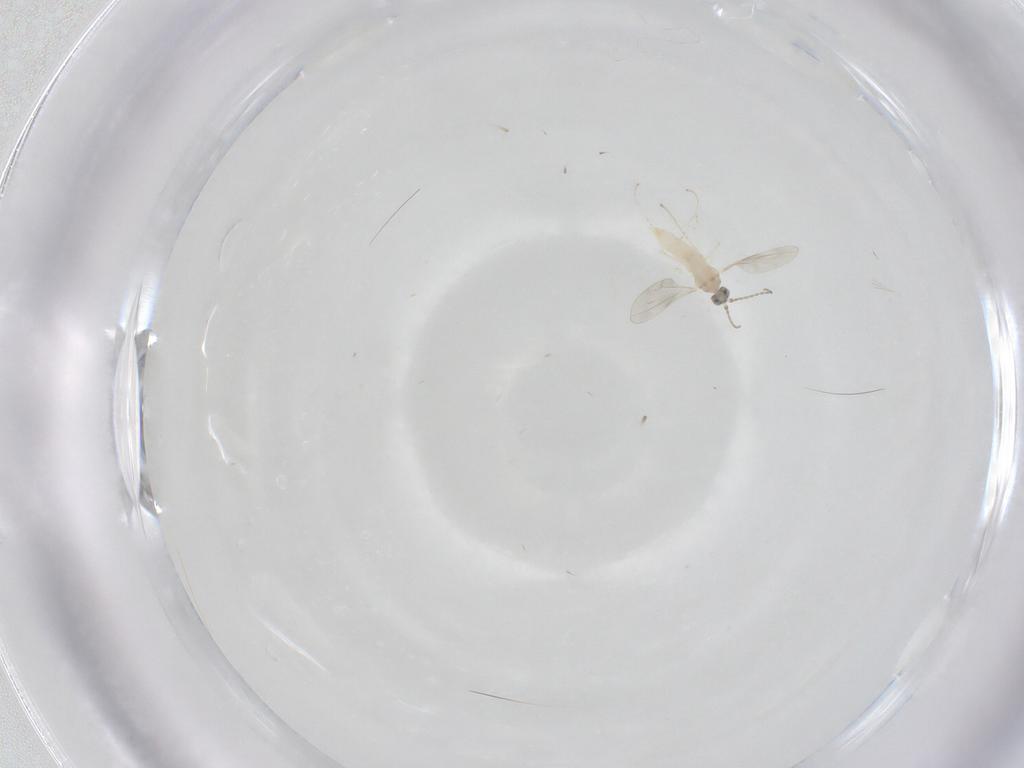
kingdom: Animalia
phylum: Arthropoda
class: Insecta
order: Diptera
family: Cecidomyiidae
